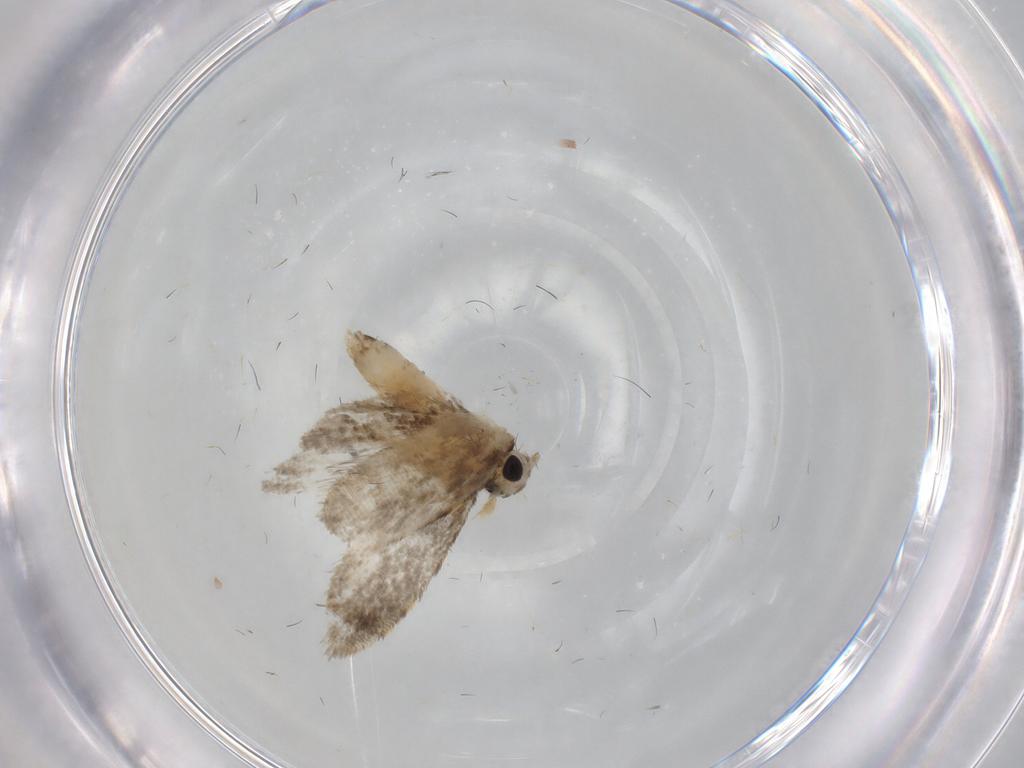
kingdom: Animalia
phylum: Arthropoda
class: Insecta
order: Lepidoptera
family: Psychidae
